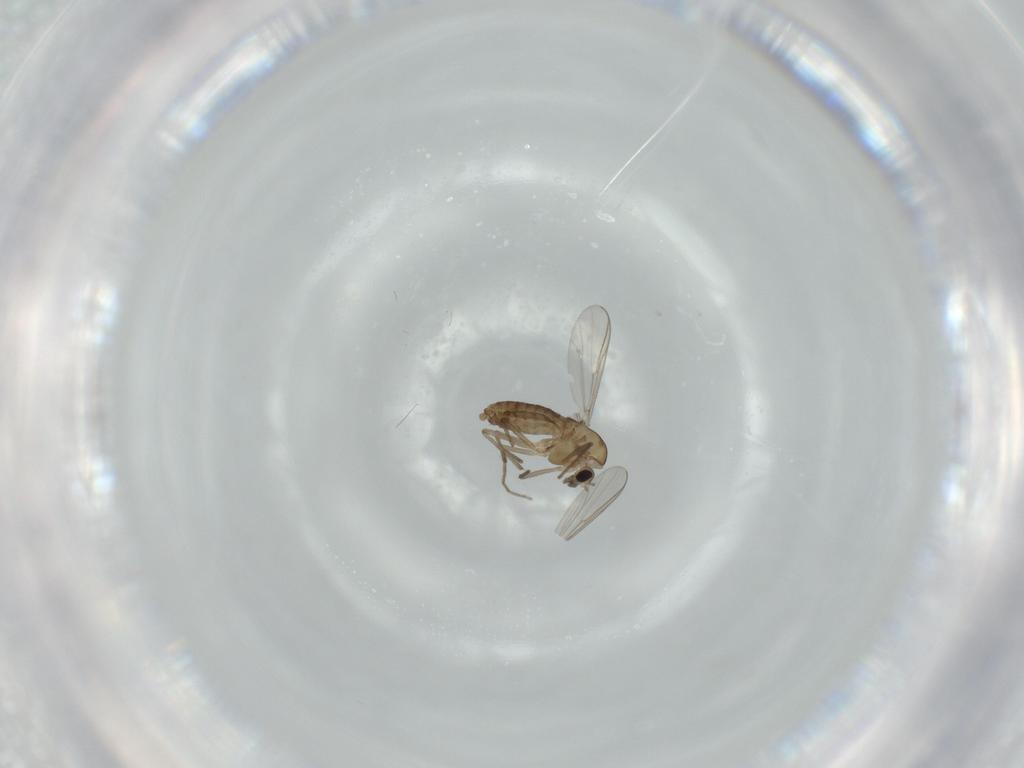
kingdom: Animalia
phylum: Arthropoda
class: Insecta
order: Diptera
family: Chironomidae
